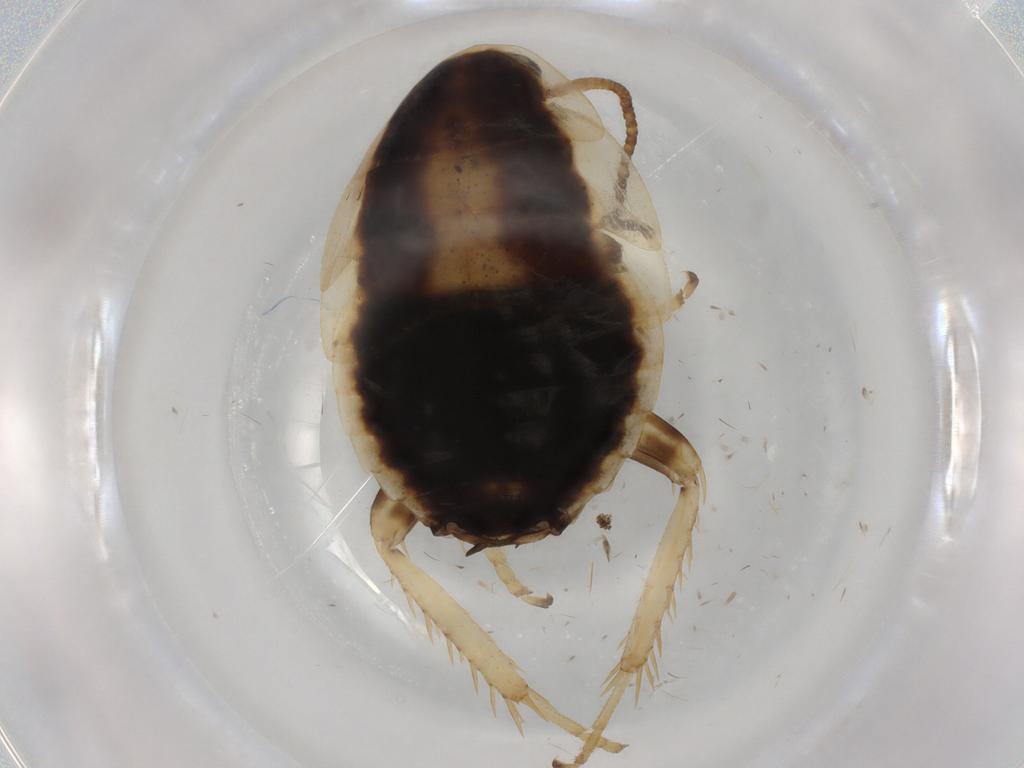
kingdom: Animalia
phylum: Arthropoda
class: Insecta
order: Blattodea
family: Ectobiidae
